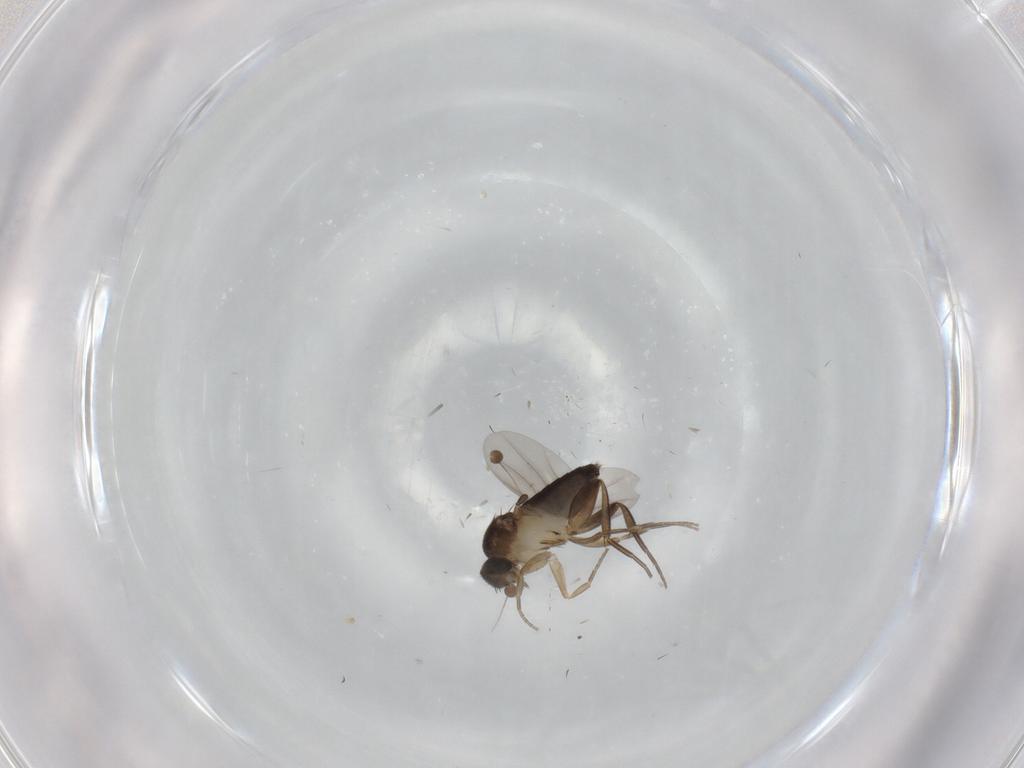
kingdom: Animalia
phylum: Arthropoda
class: Insecta
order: Diptera
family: Phoridae
